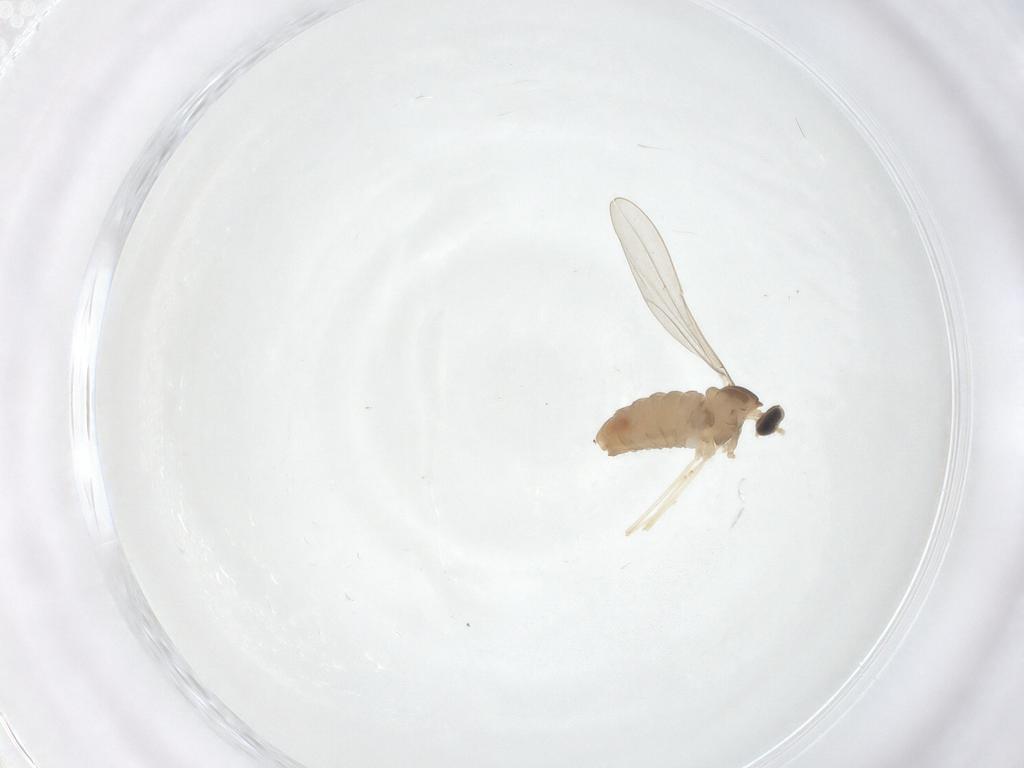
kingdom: Animalia
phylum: Arthropoda
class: Insecta
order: Diptera
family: Cecidomyiidae
